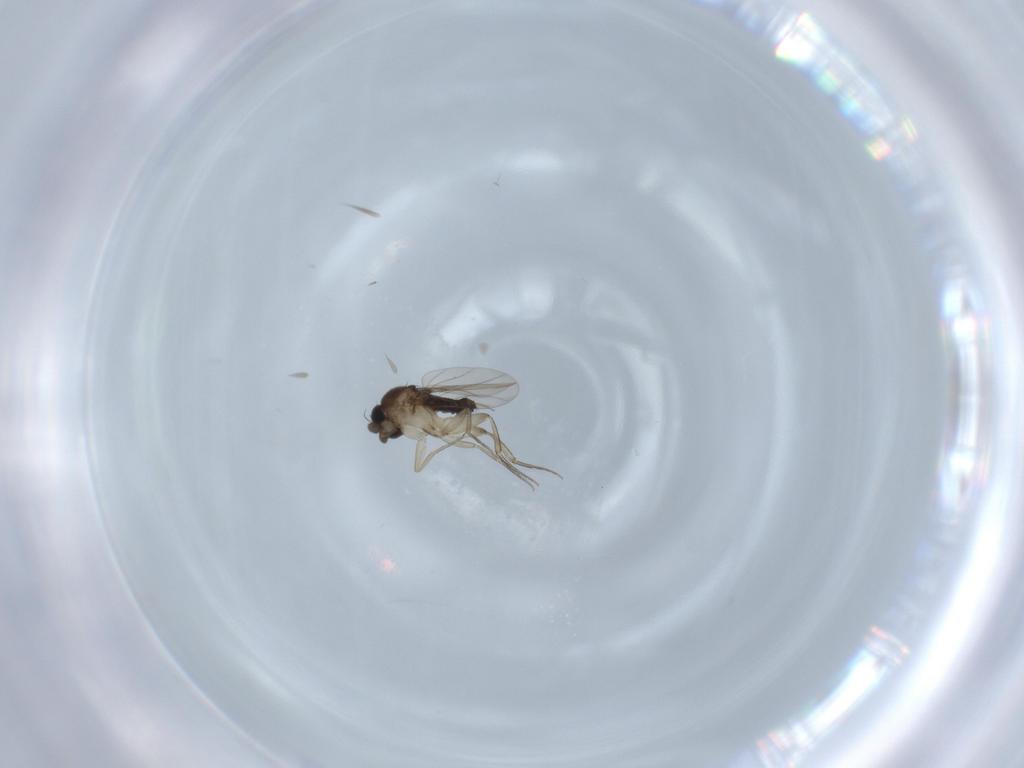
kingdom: Animalia
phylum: Arthropoda
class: Insecta
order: Diptera
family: Phoridae
